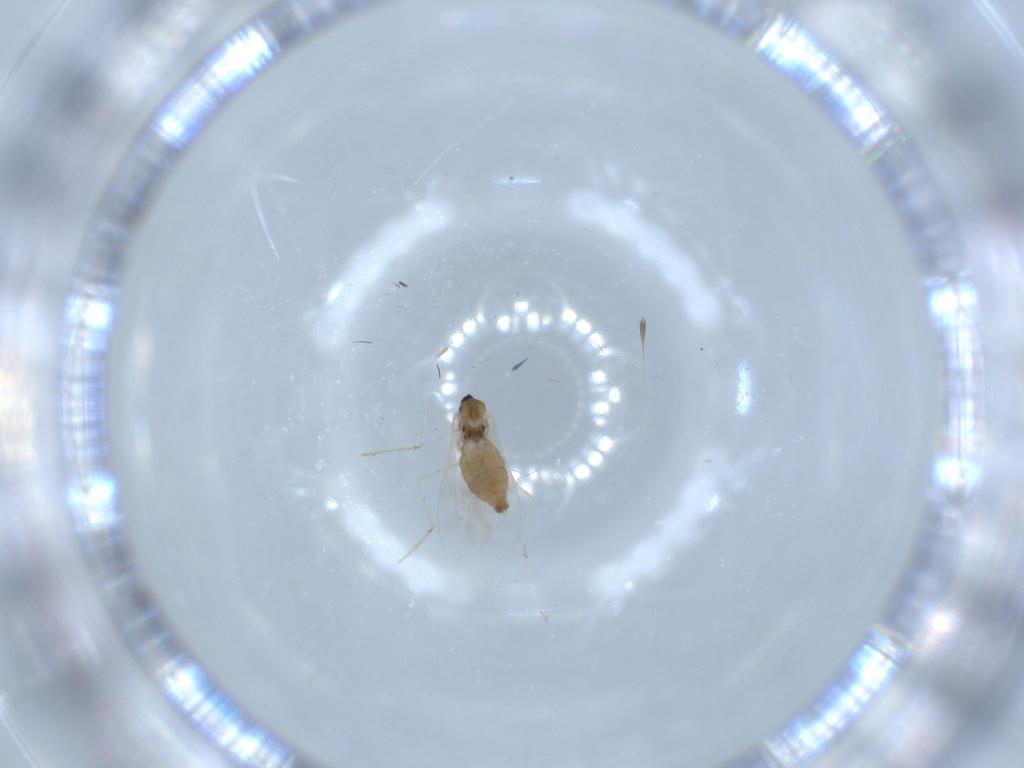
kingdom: Animalia
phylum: Arthropoda
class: Insecta
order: Diptera
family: Cecidomyiidae
